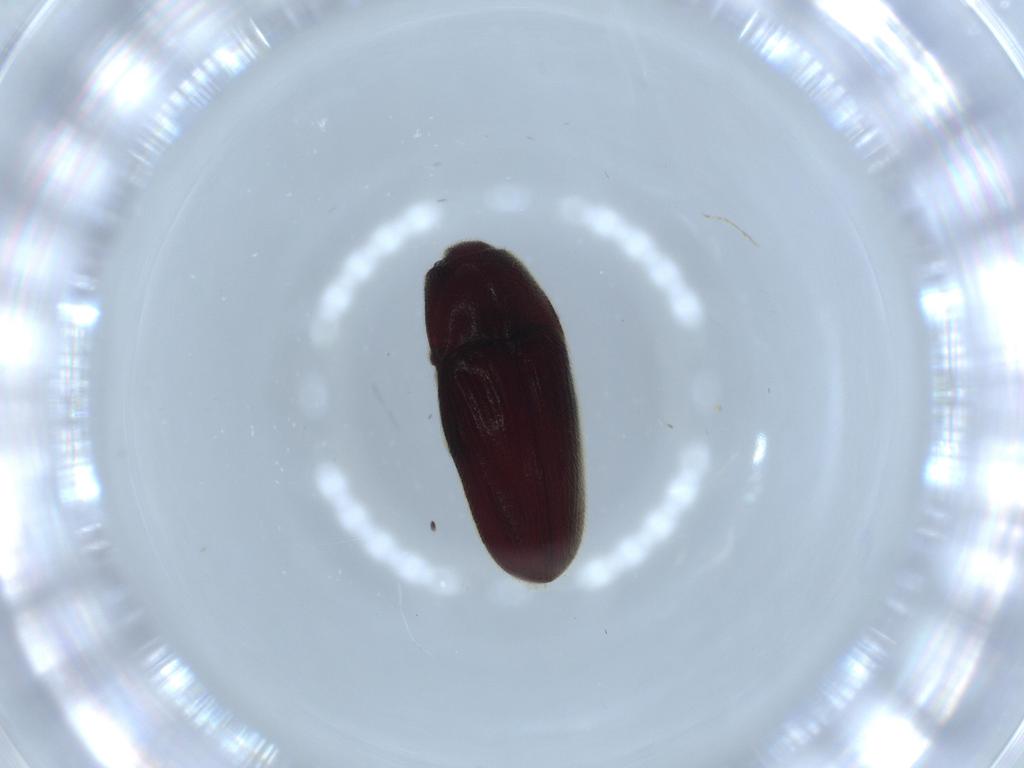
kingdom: Animalia
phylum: Arthropoda
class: Insecta
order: Coleoptera
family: Throscidae
